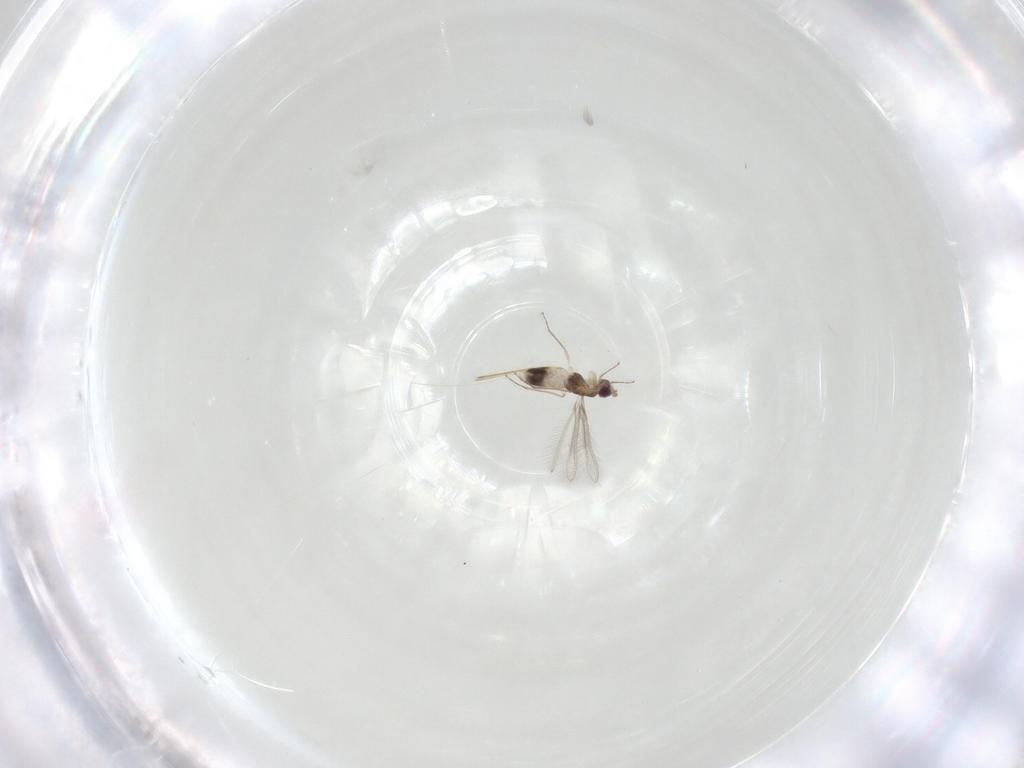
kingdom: Animalia
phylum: Arthropoda
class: Insecta
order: Hymenoptera
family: Mymaridae
